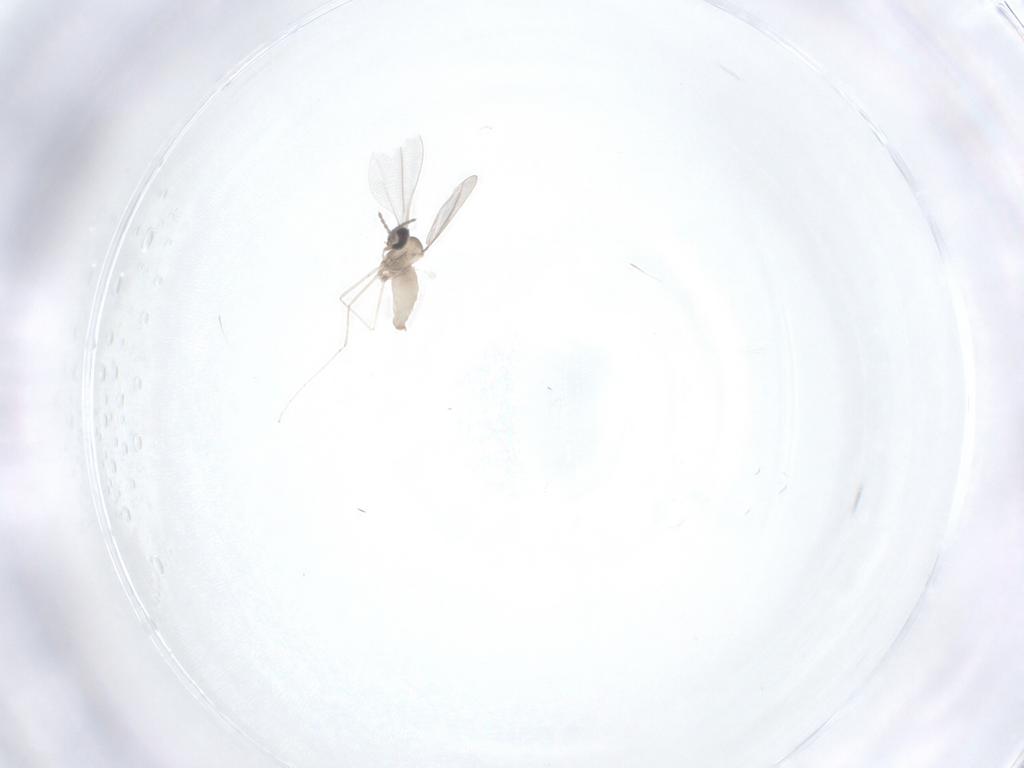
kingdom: Animalia
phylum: Arthropoda
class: Insecta
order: Diptera
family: Cecidomyiidae
